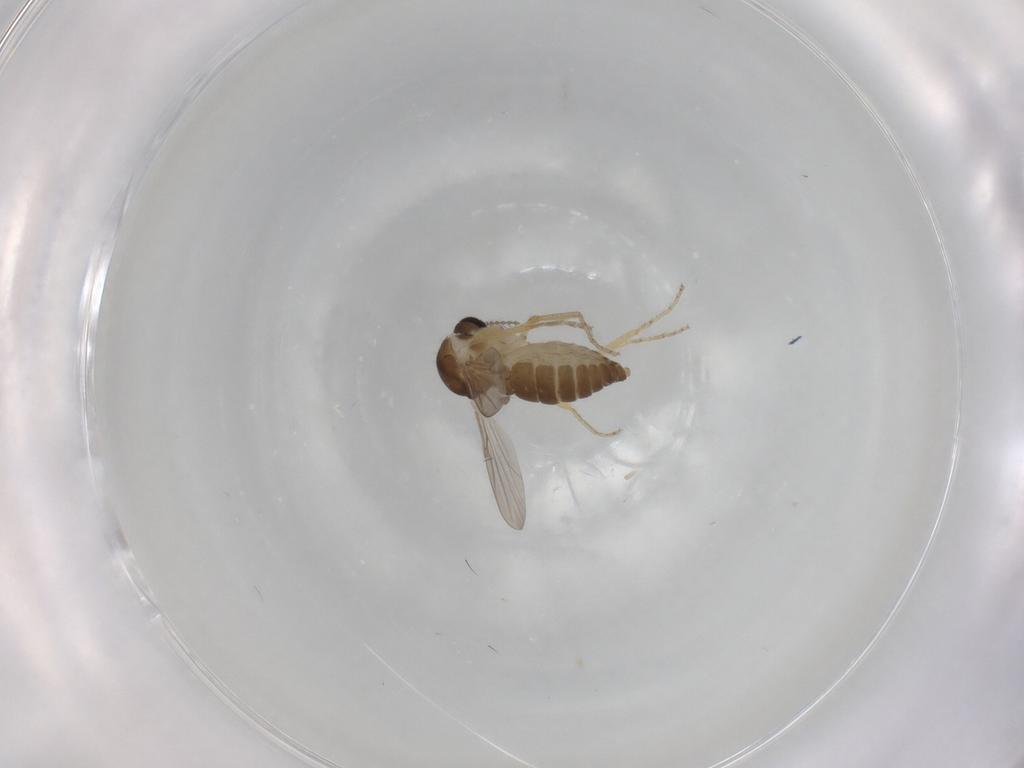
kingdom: Animalia
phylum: Arthropoda
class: Insecta
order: Diptera
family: Ceratopogonidae
